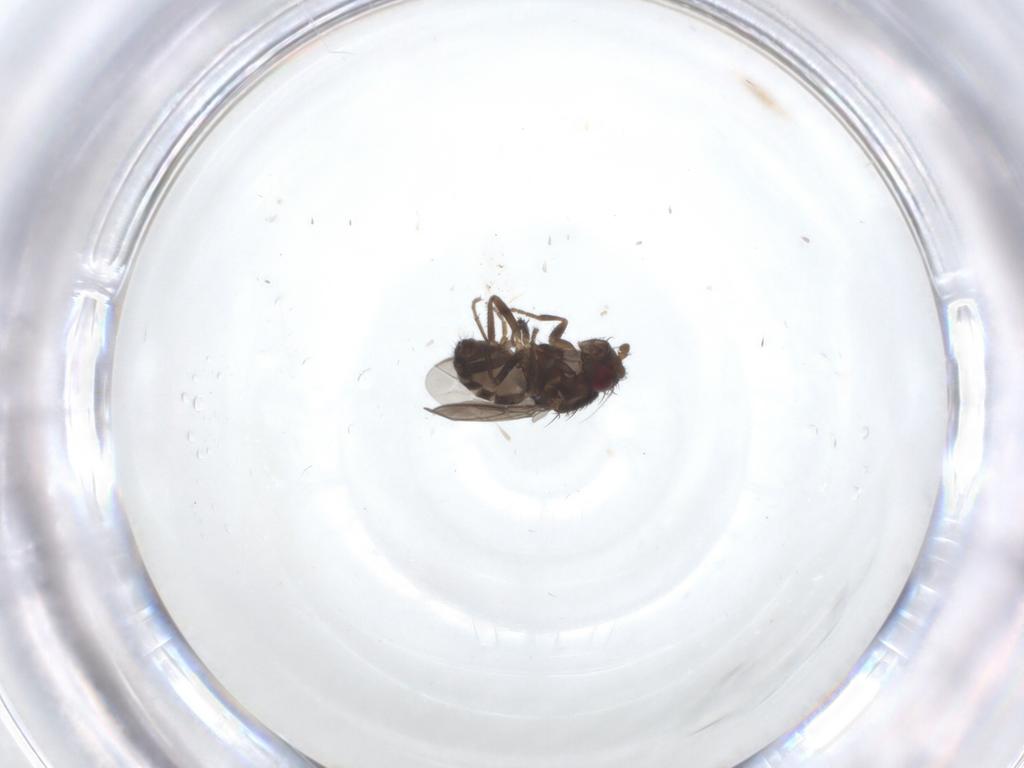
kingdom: Animalia
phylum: Arthropoda
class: Insecta
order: Diptera
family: Sphaeroceridae
